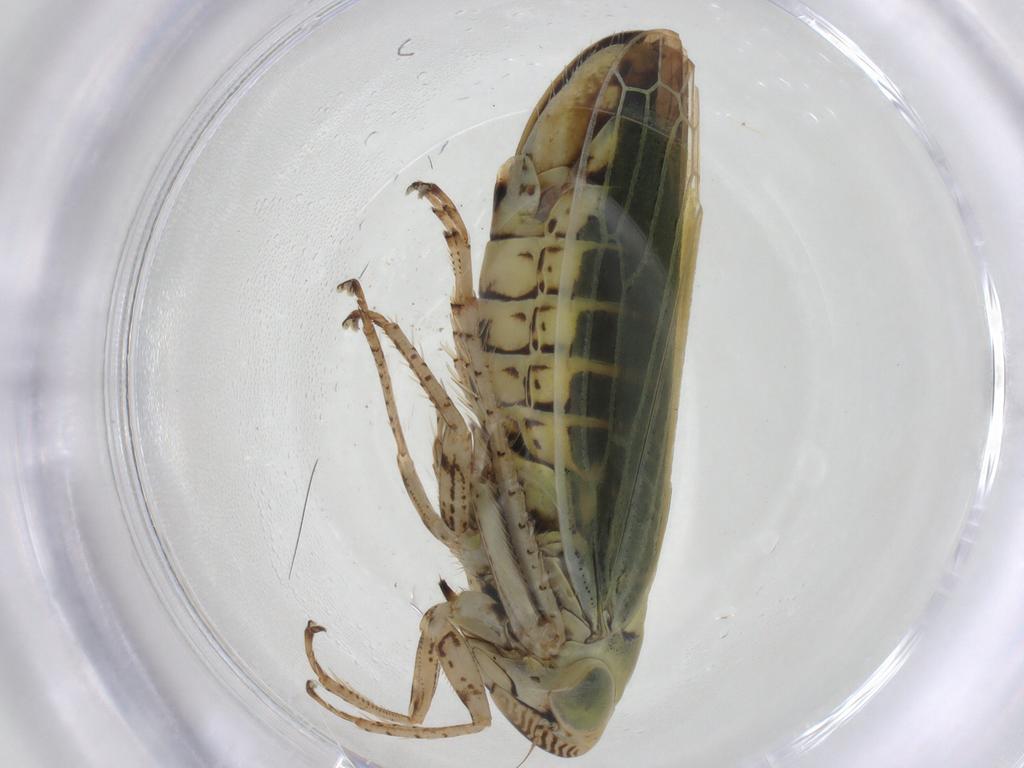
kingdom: Animalia
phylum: Arthropoda
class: Insecta
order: Hemiptera
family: Cicadellidae
